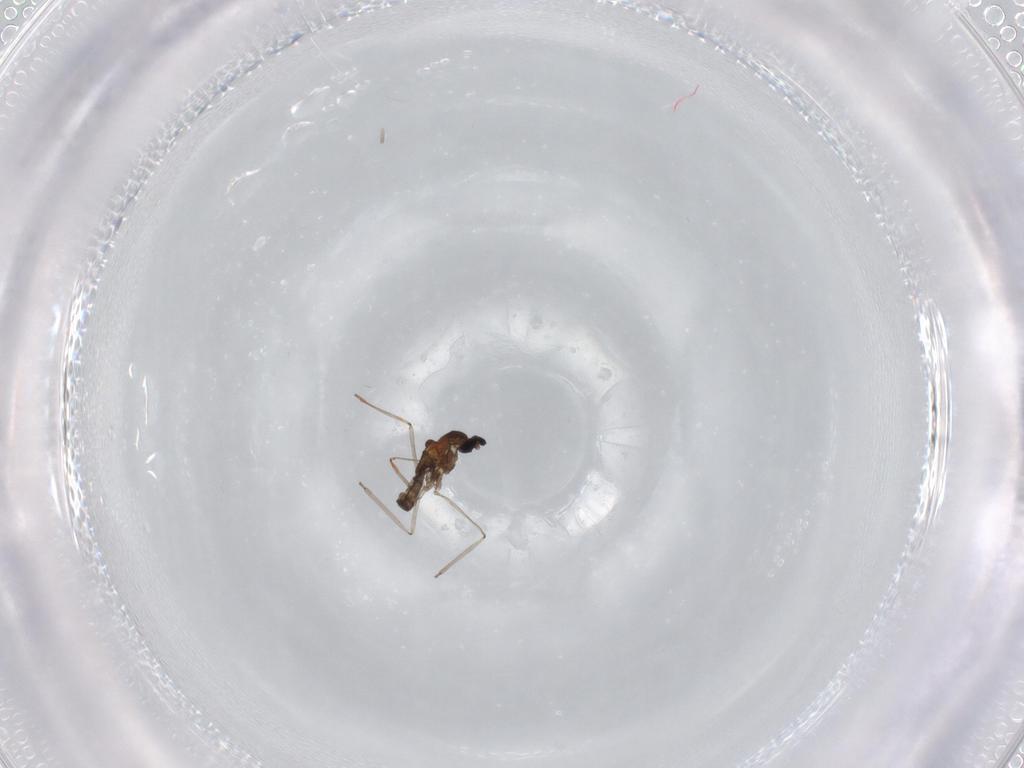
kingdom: Animalia
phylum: Arthropoda
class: Insecta
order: Diptera
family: Cecidomyiidae
